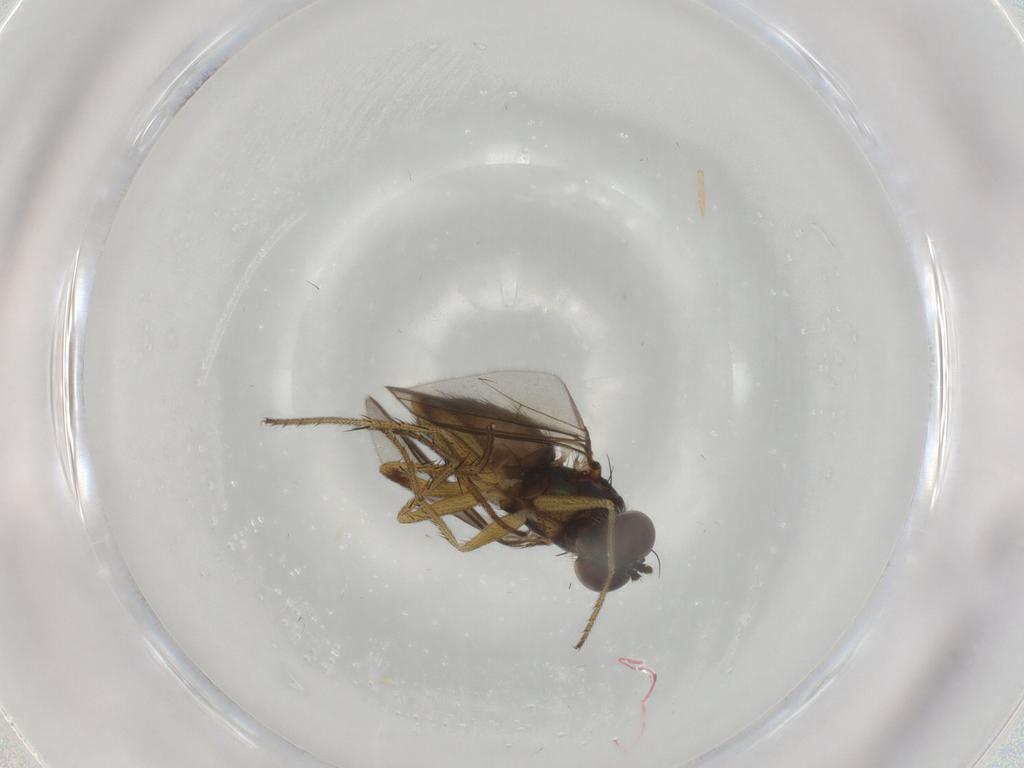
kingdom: Animalia
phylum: Arthropoda
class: Insecta
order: Diptera
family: Dolichopodidae
